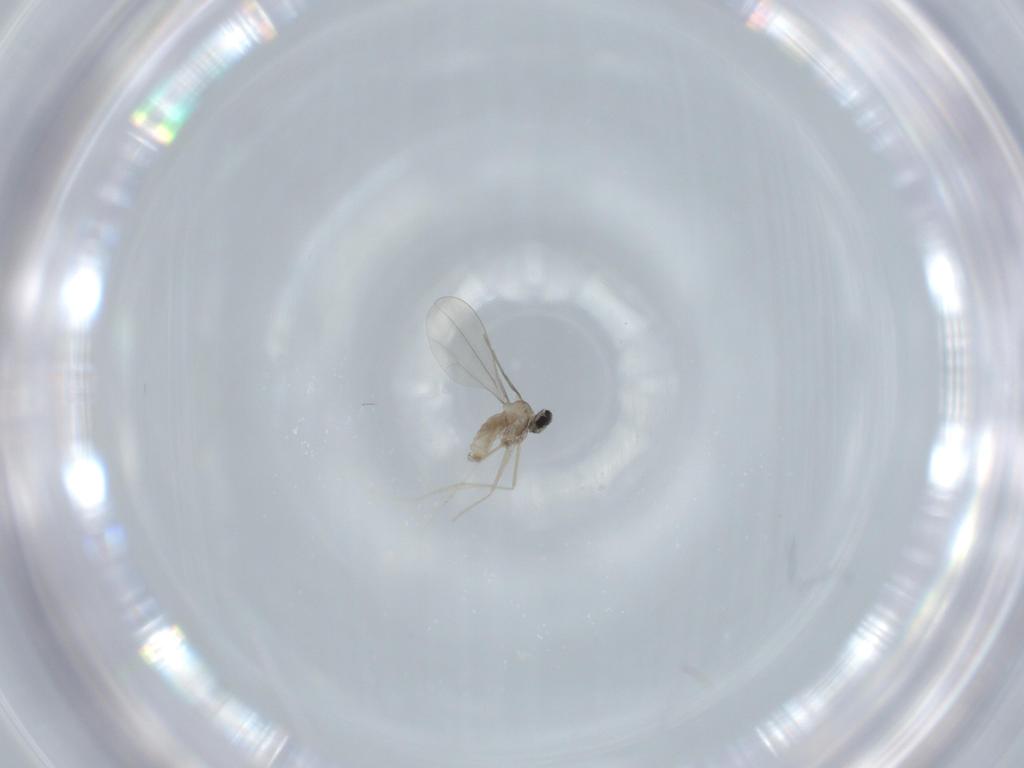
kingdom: Animalia
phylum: Arthropoda
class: Insecta
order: Diptera
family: Cecidomyiidae
